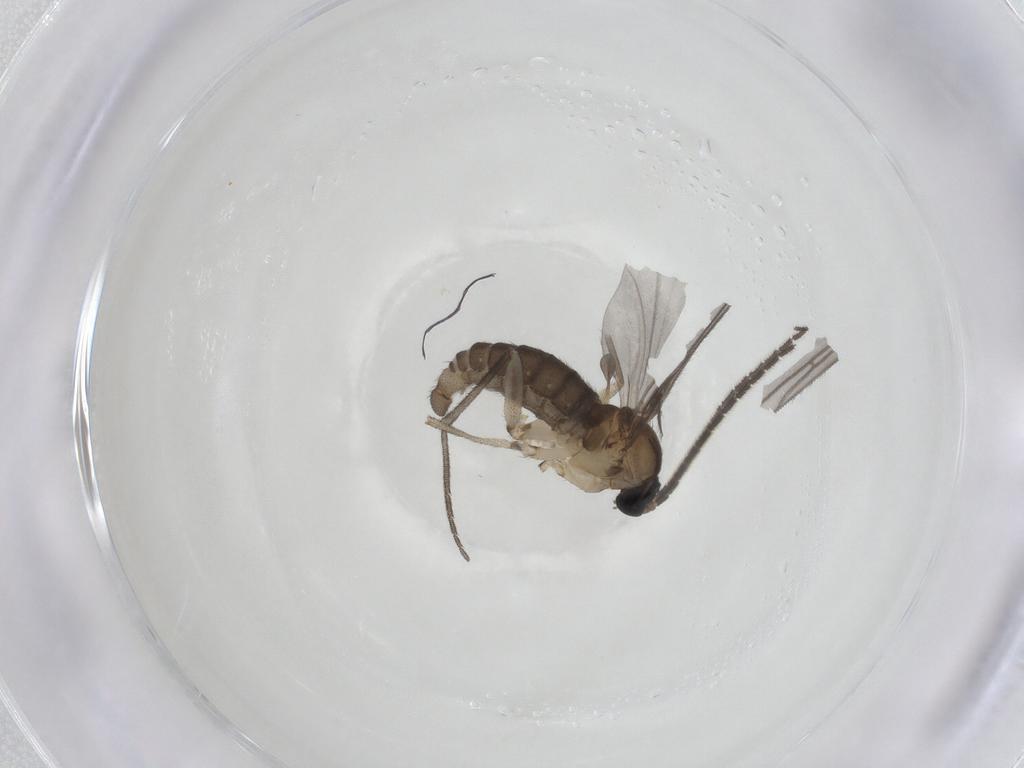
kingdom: Animalia
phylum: Arthropoda
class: Insecta
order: Diptera
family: Sciaridae
